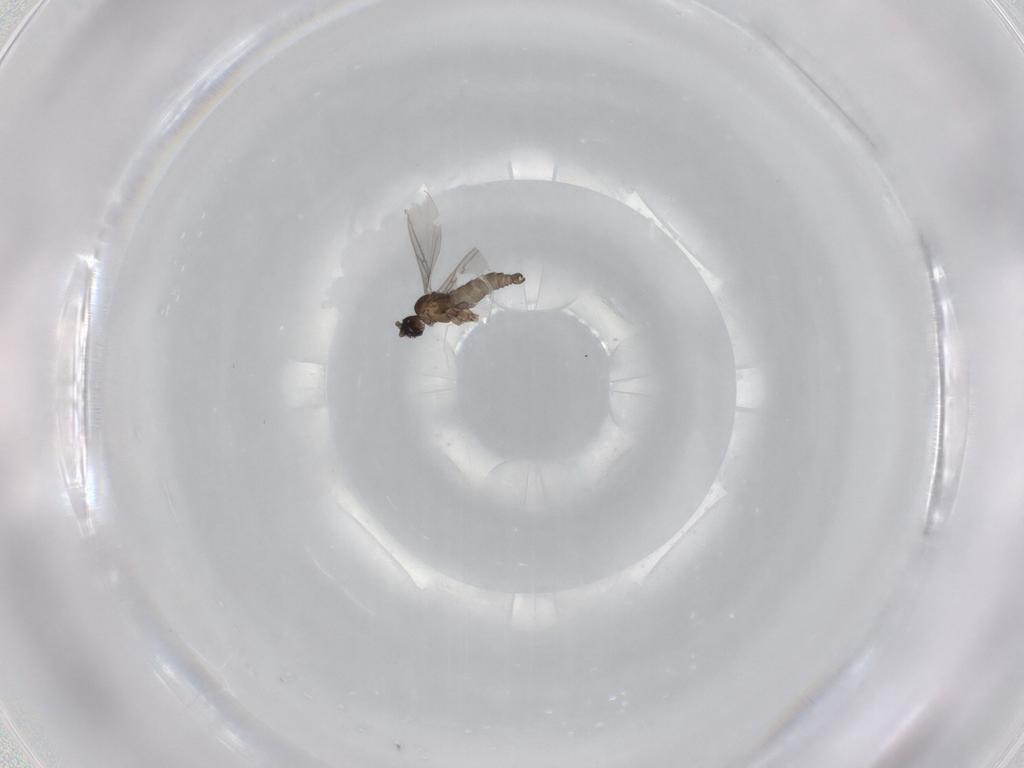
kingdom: Animalia
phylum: Arthropoda
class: Insecta
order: Diptera
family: Sciaridae
